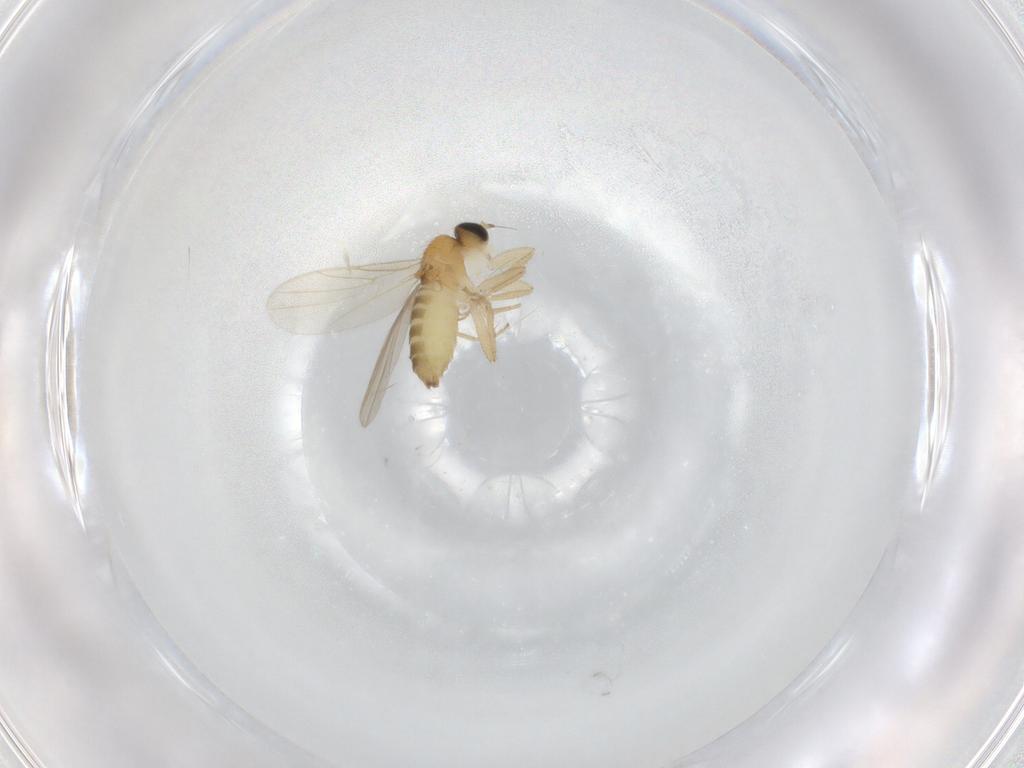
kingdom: Animalia
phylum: Arthropoda
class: Insecta
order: Diptera
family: Hybotidae
